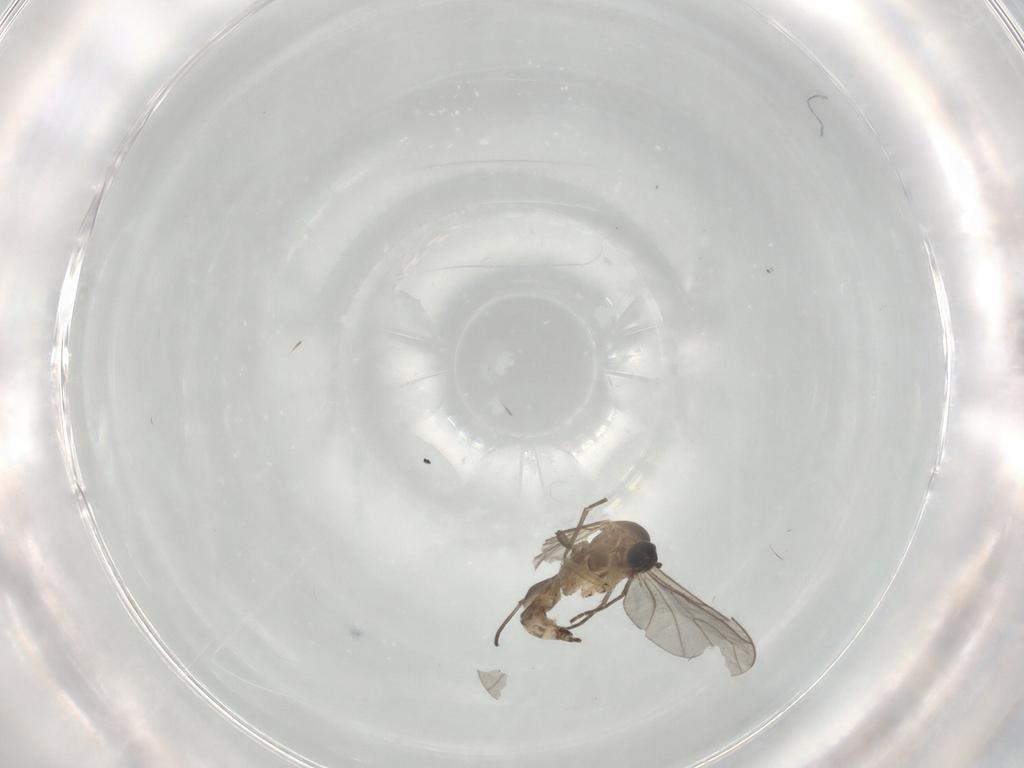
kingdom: Animalia
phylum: Arthropoda
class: Insecta
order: Diptera
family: Sciaridae
